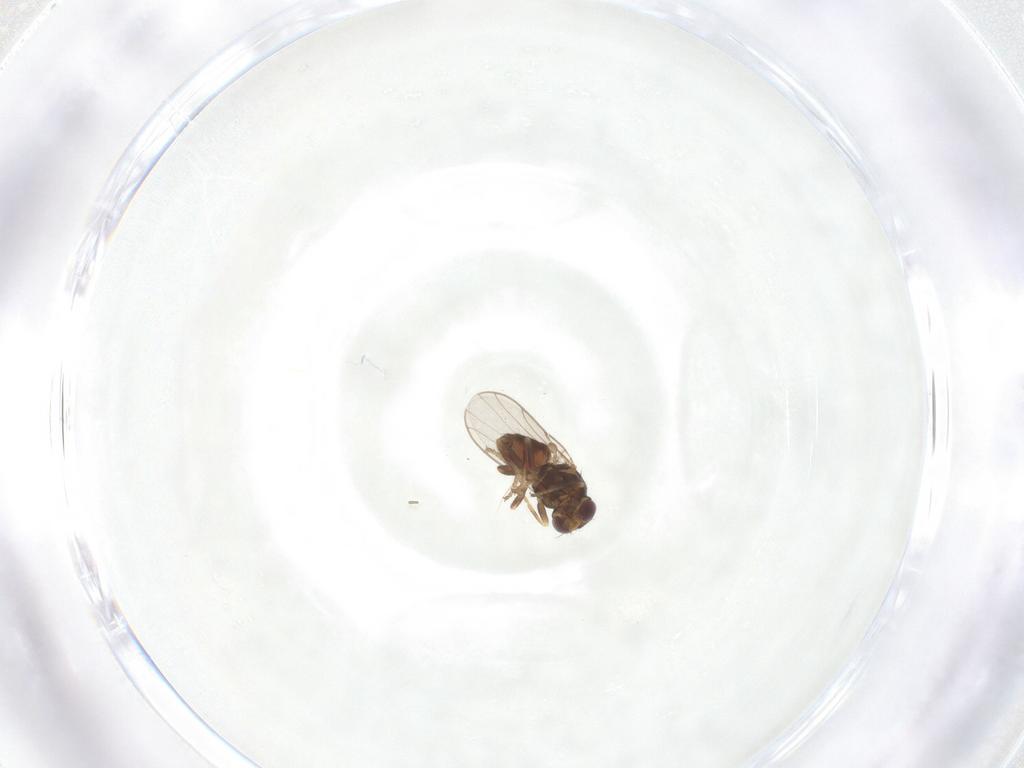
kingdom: Animalia
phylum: Arthropoda
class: Insecta
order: Diptera
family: Chloropidae
